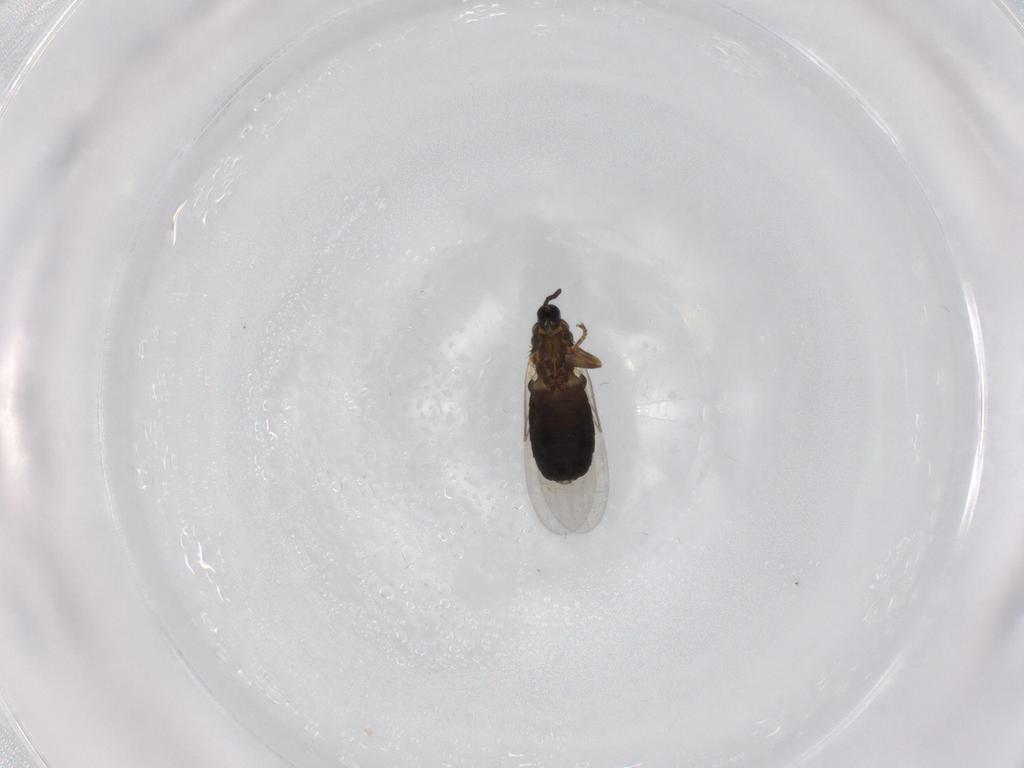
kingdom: Animalia
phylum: Arthropoda
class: Insecta
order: Diptera
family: Scatopsidae
